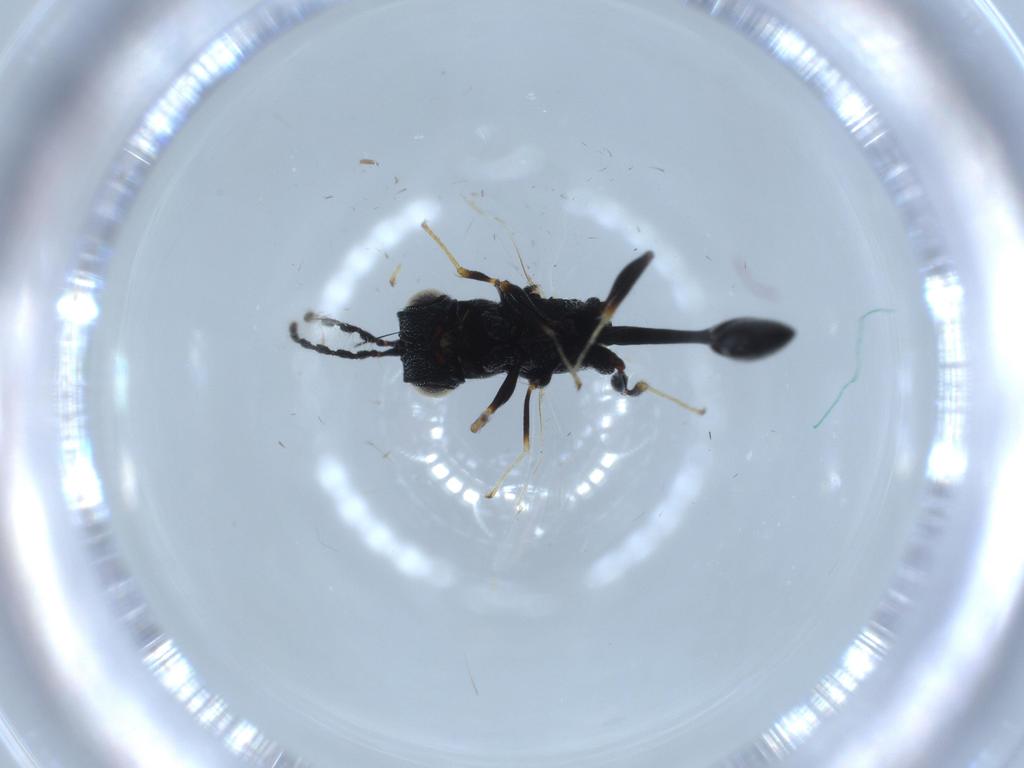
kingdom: Animalia
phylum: Arthropoda
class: Insecta
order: Hymenoptera
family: Eurytomidae
